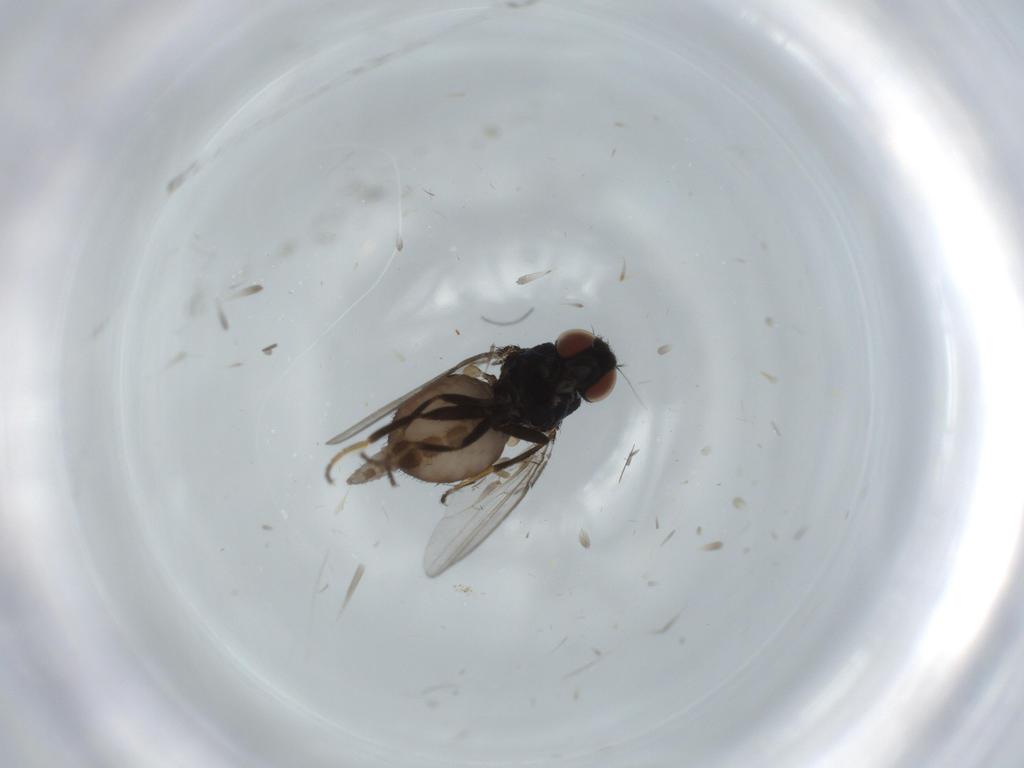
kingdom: Animalia
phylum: Arthropoda
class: Insecta
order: Diptera
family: Milichiidae
